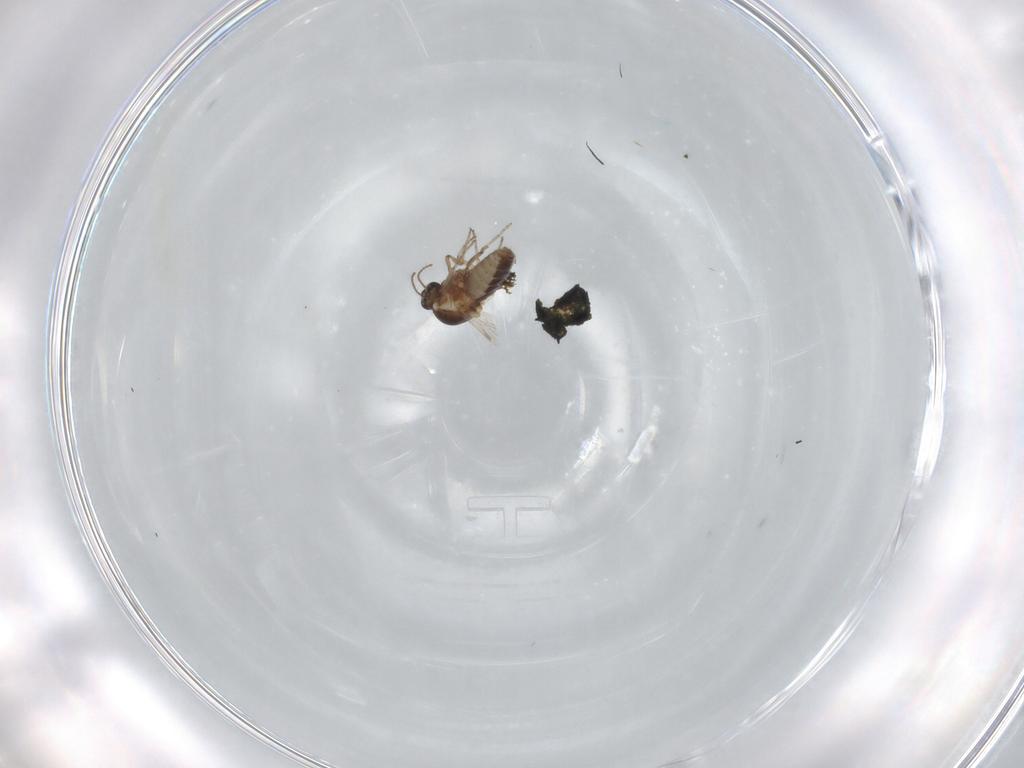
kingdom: Animalia
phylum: Arthropoda
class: Insecta
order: Diptera
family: Ceratopogonidae
